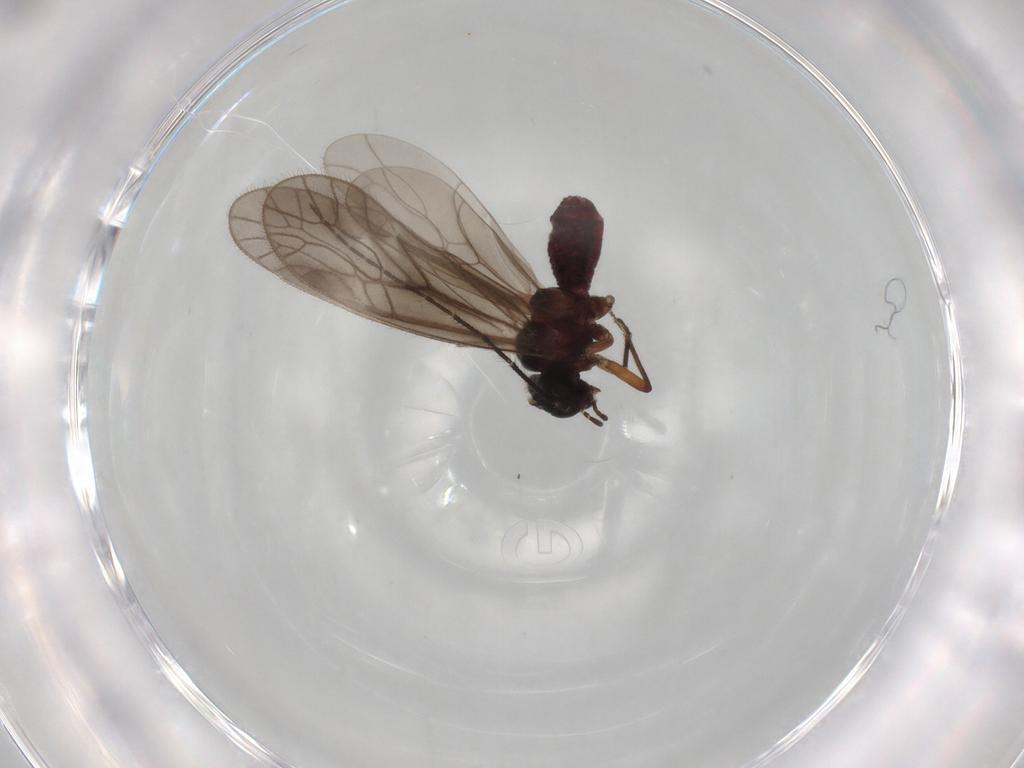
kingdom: Animalia
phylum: Arthropoda
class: Insecta
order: Psocodea
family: Trichopsocidae
